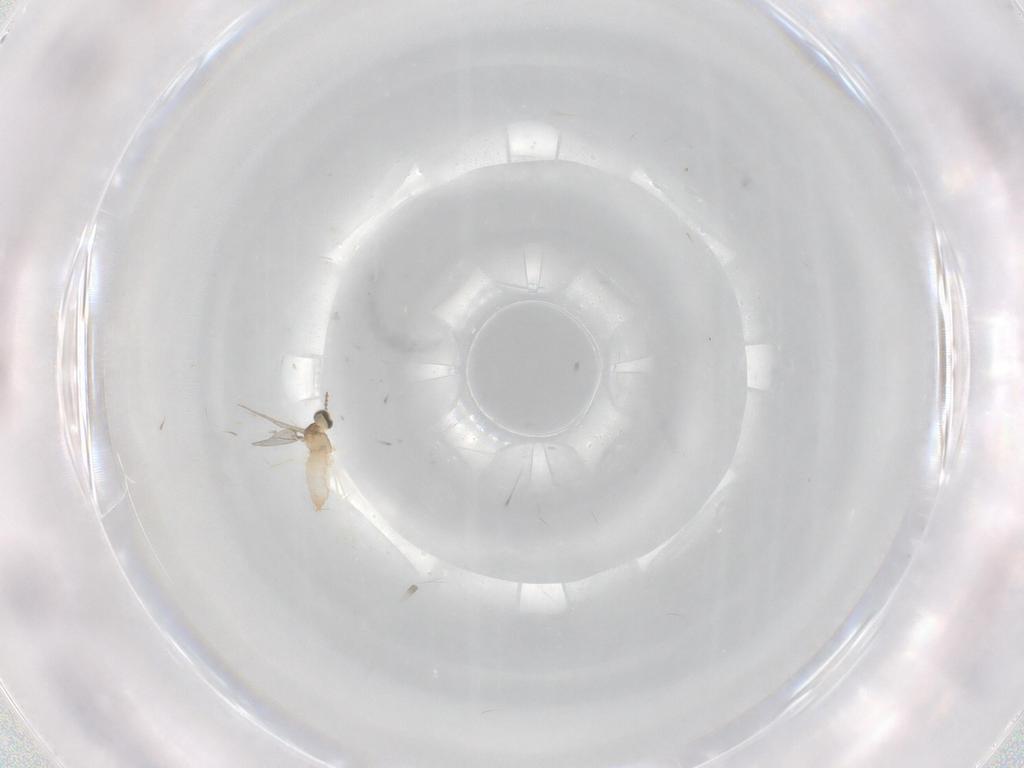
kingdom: Animalia
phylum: Arthropoda
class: Insecta
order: Diptera
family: Cecidomyiidae
